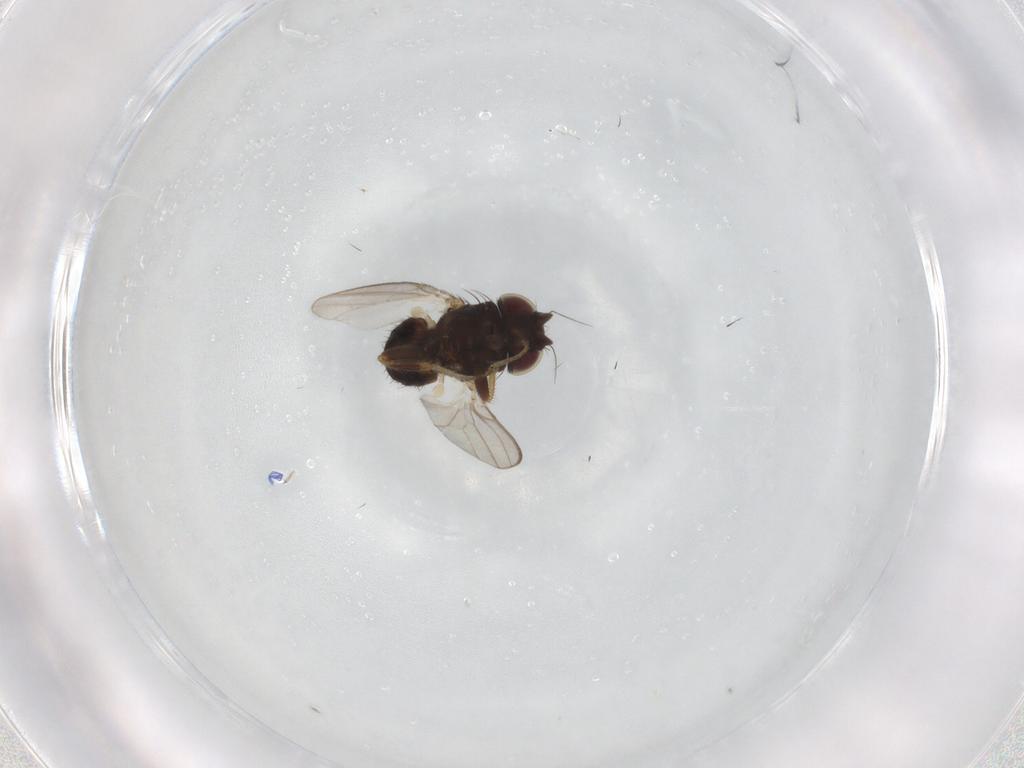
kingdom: Animalia
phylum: Arthropoda
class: Insecta
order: Diptera
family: Milichiidae
